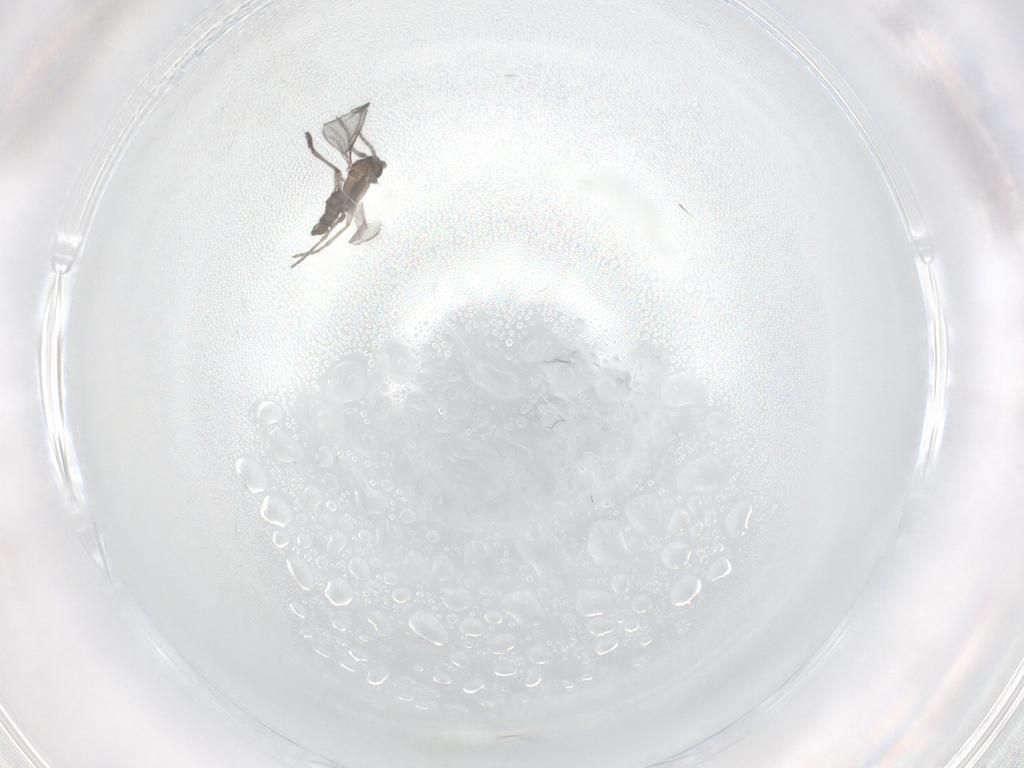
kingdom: Animalia
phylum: Arthropoda
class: Insecta
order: Diptera
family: Sciaridae
